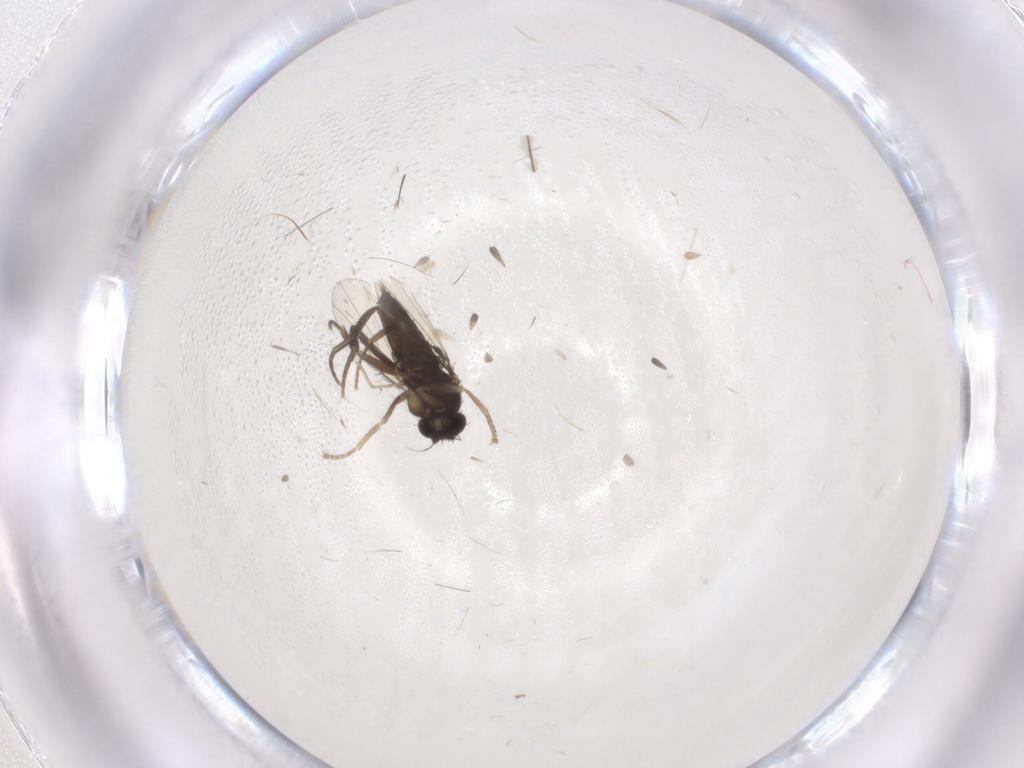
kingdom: Animalia
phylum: Arthropoda
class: Insecta
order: Diptera
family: Cecidomyiidae
